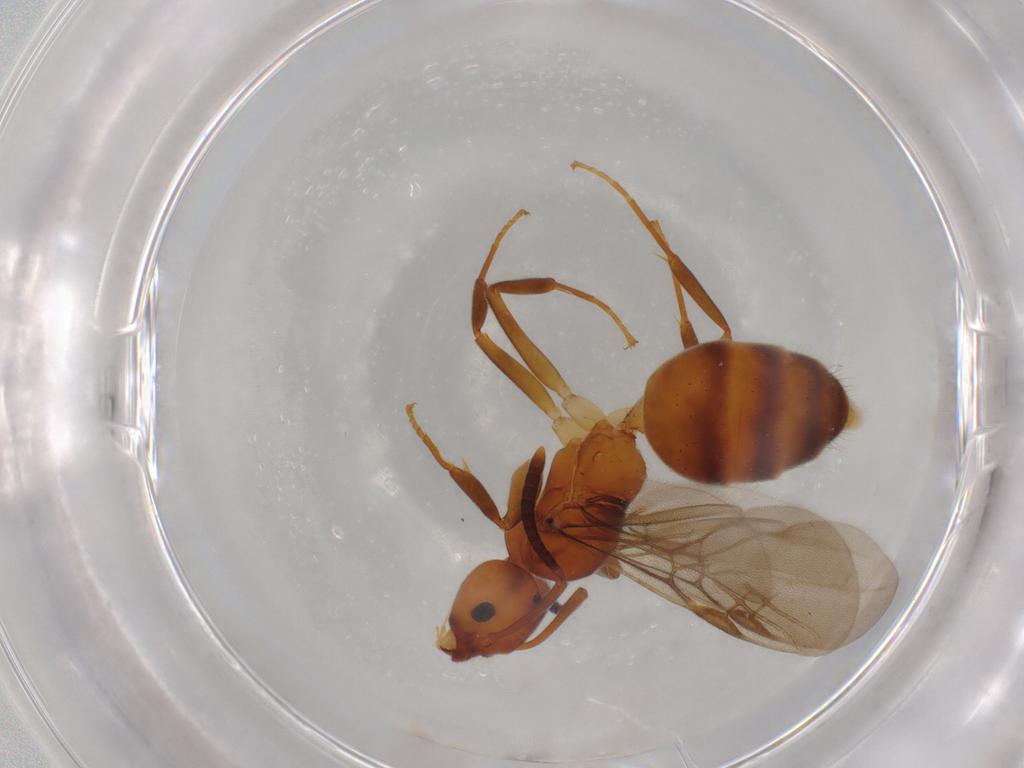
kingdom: Animalia
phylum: Arthropoda
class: Insecta
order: Hymenoptera
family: Formicidae
